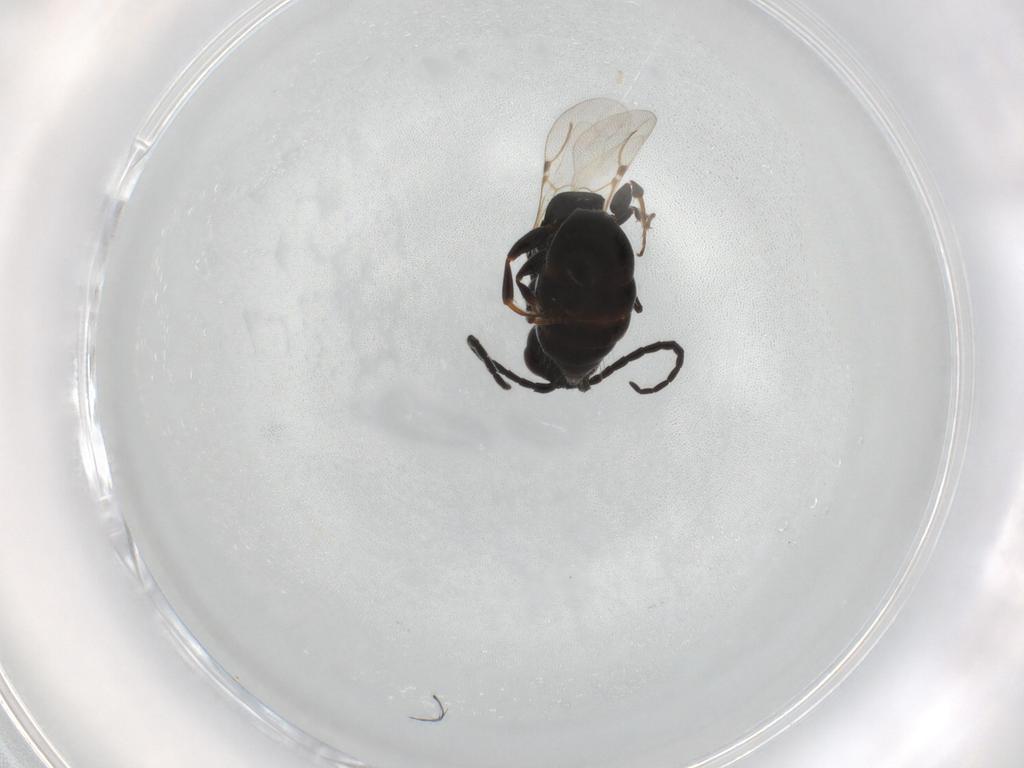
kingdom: Animalia
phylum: Arthropoda
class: Insecta
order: Hymenoptera
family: Bethylidae
